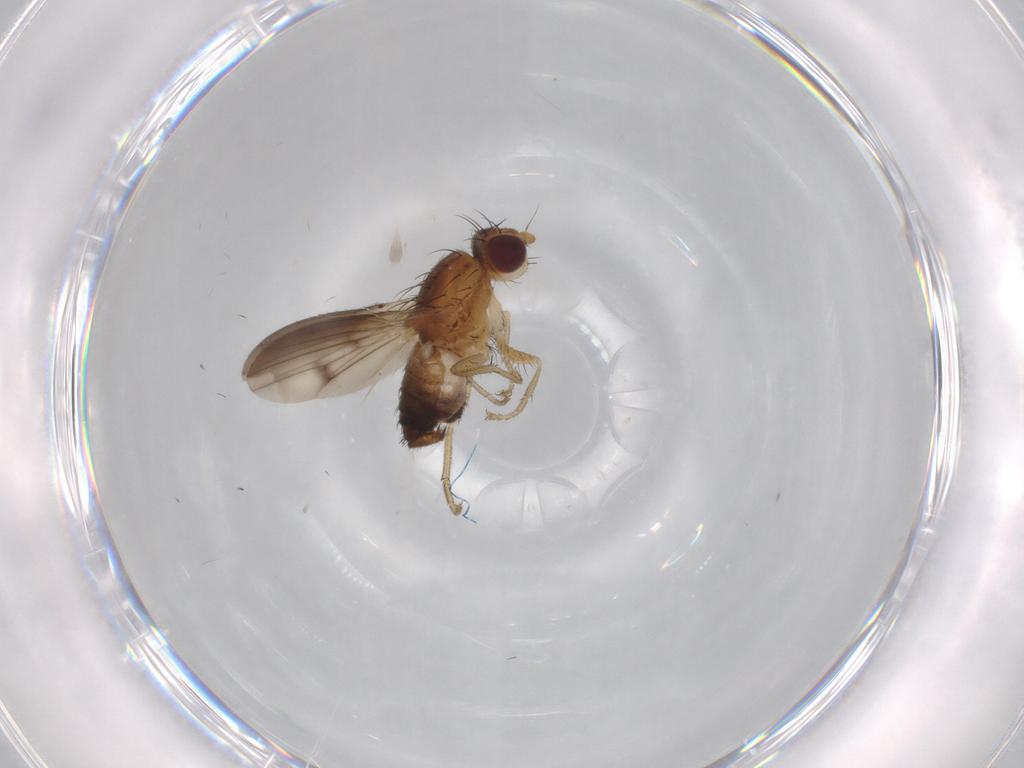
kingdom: Animalia
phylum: Arthropoda
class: Insecta
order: Diptera
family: Heleomyzidae
